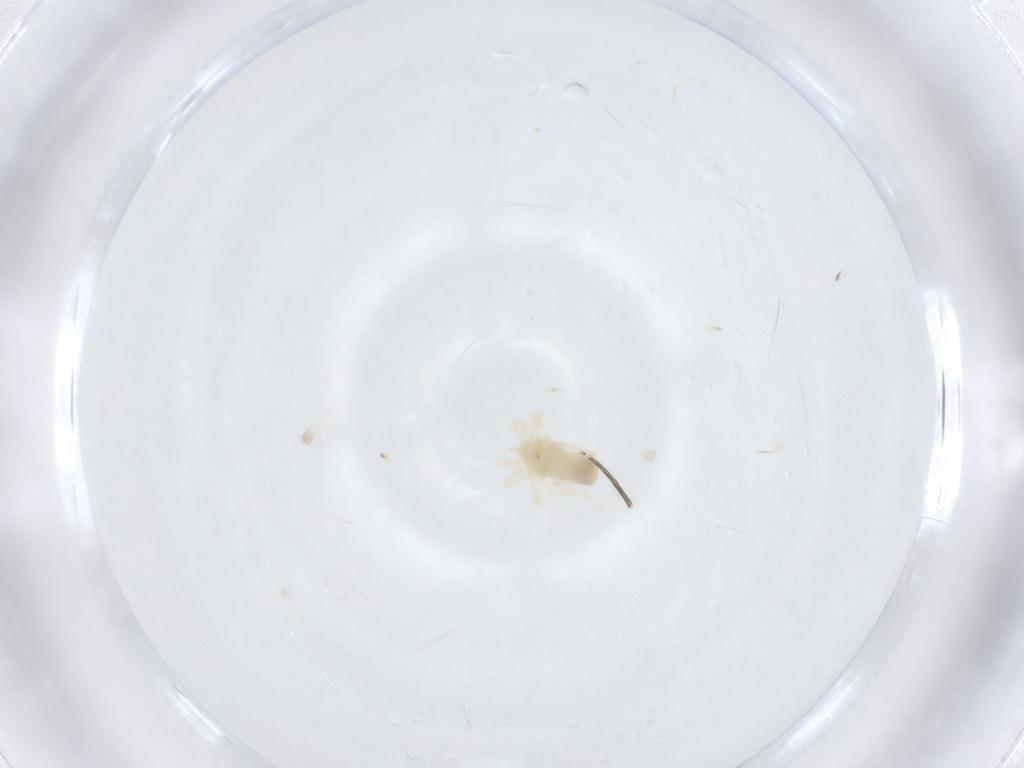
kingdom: Animalia
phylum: Arthropoda
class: Arachnida
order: Trombidiformes
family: Anystidae
